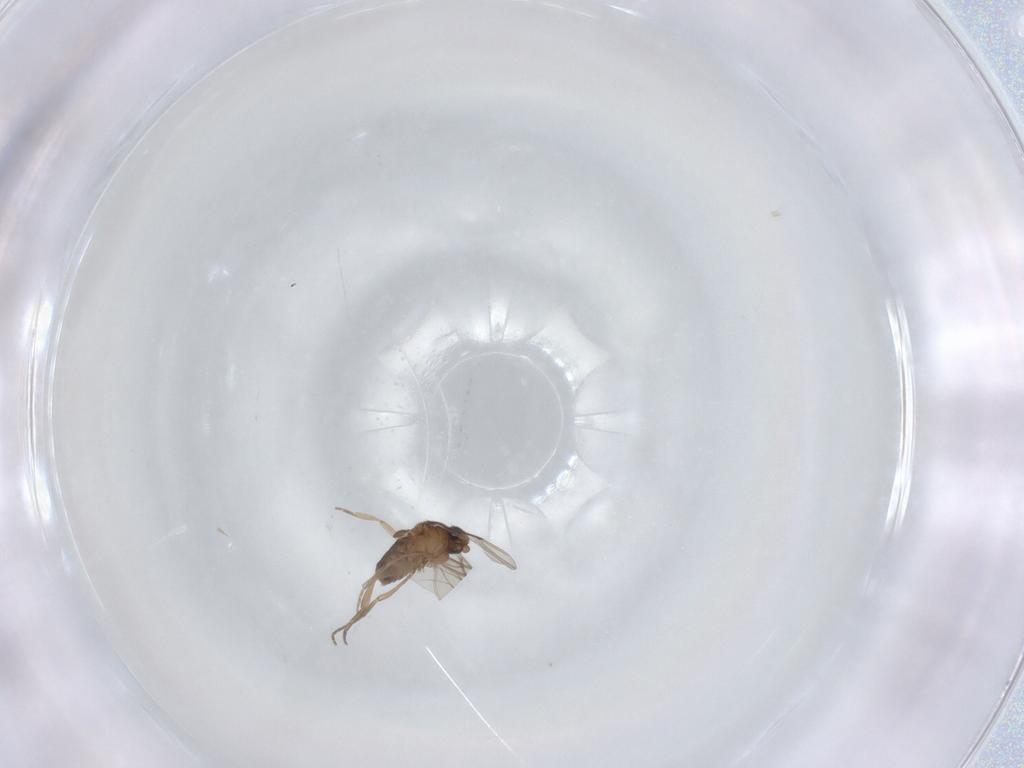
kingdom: Animalia
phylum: Arthropoda
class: Insecta
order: Diptera
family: Phoridae
